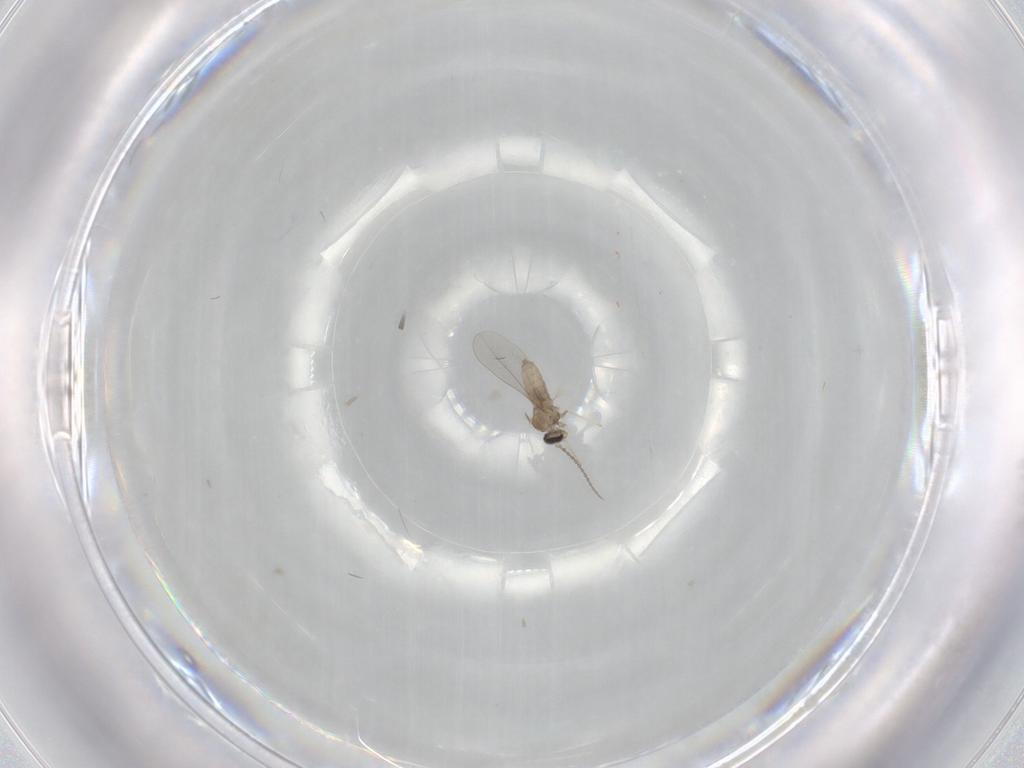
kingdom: Animalia
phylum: Arthropoda
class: Insecta
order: Diptera
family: Cecidomyiidae
